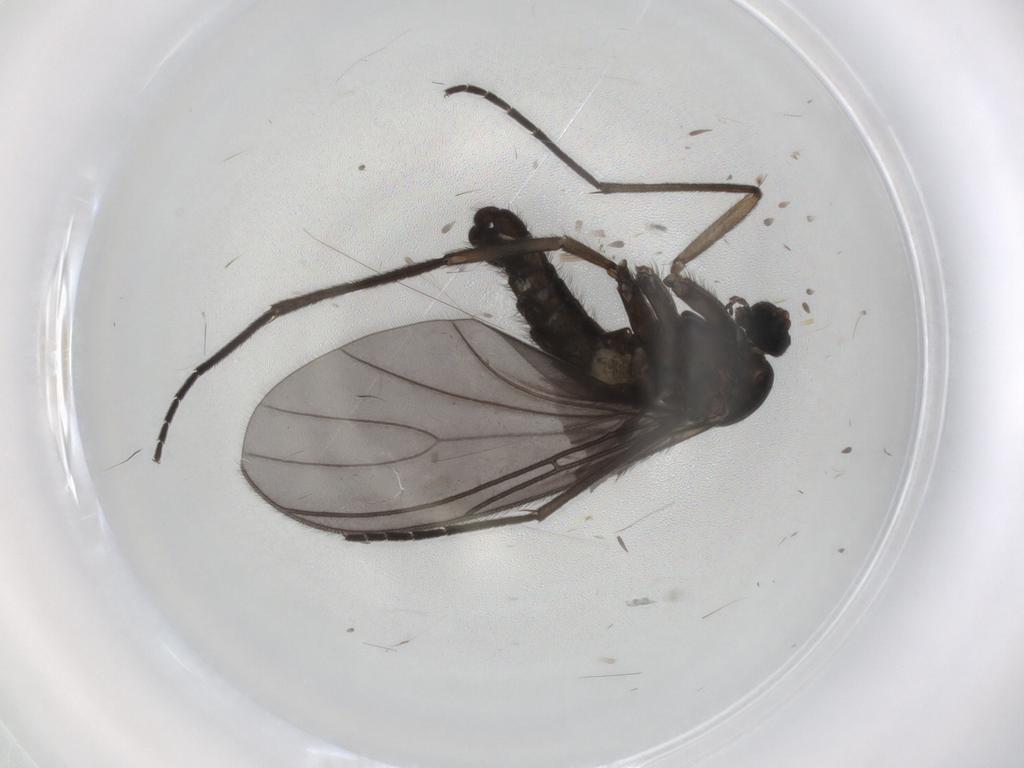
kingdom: Animalia
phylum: Arthropoda
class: Insecta
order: Diptera
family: Sciaridae
